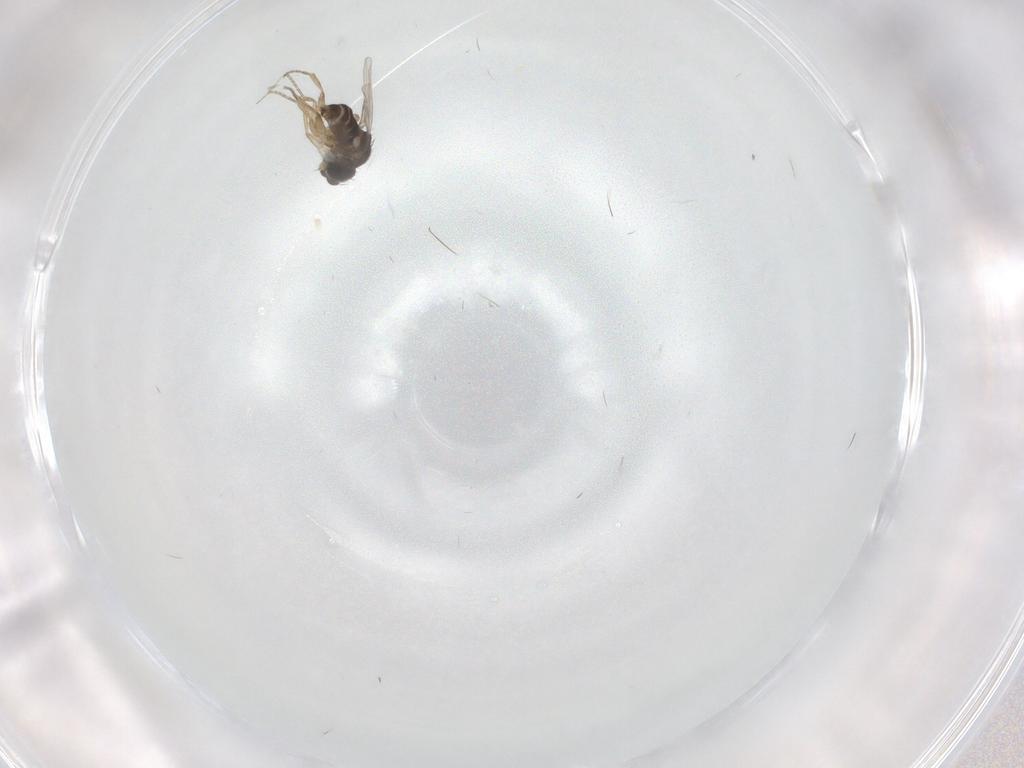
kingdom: Animalia
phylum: Arthropoda
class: Insecta
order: Diptera
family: Phoridae
